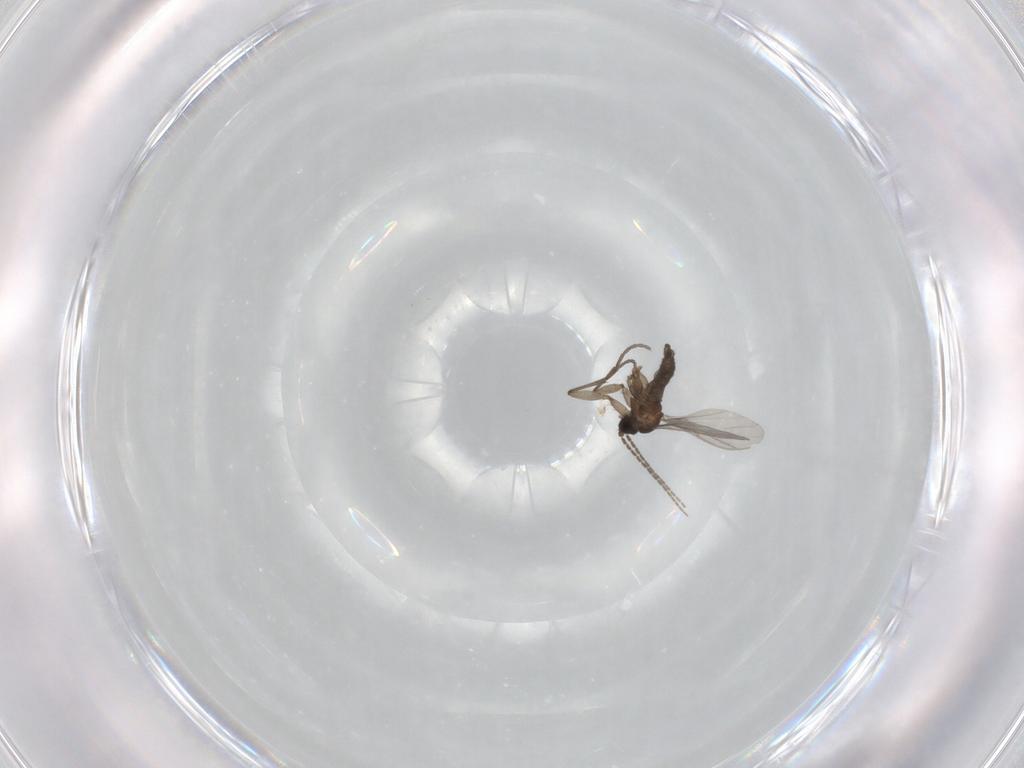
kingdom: Animalia
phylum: Arthropoda
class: Insecta
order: Diptera
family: Sciaridae
